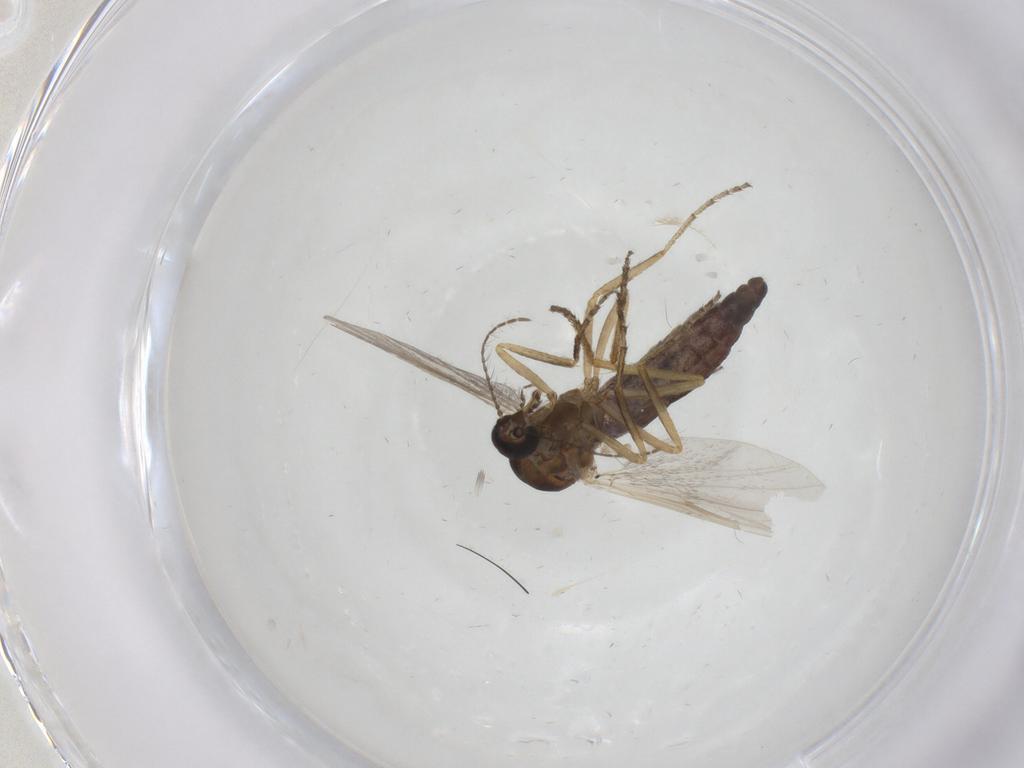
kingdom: Animalia
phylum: Arthropoda
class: Insecta
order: Diptera
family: Ceratopogonidae
